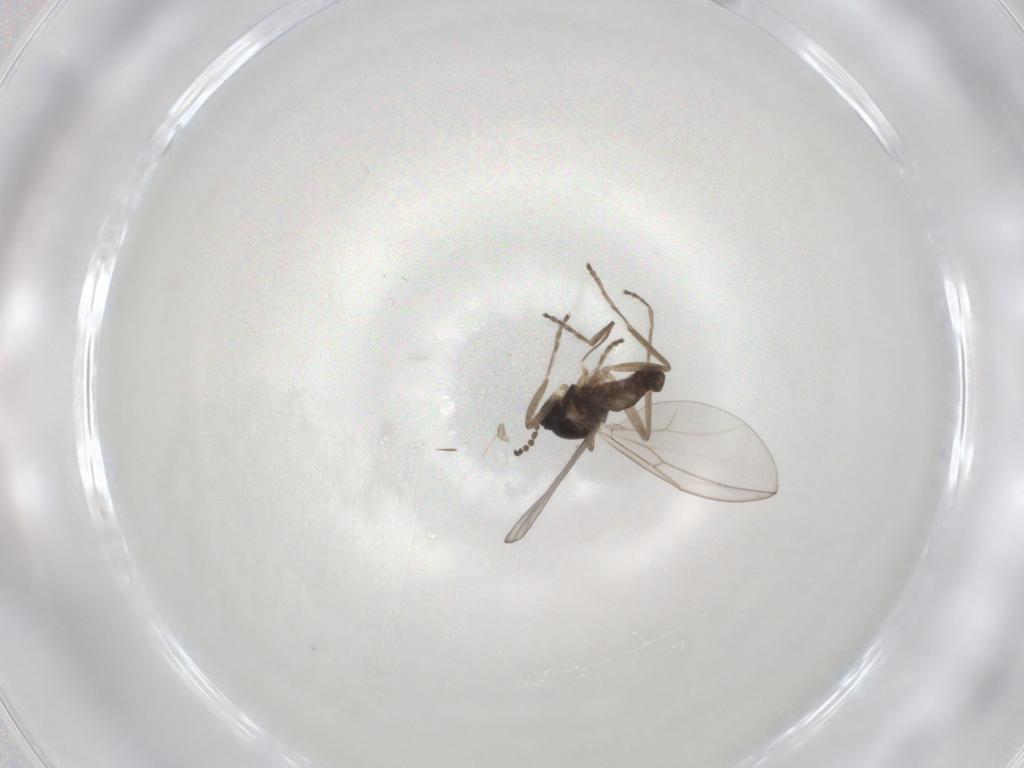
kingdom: Animalia
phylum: Arthropoda
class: Insecta
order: Diptera
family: Cecidomyiidae
